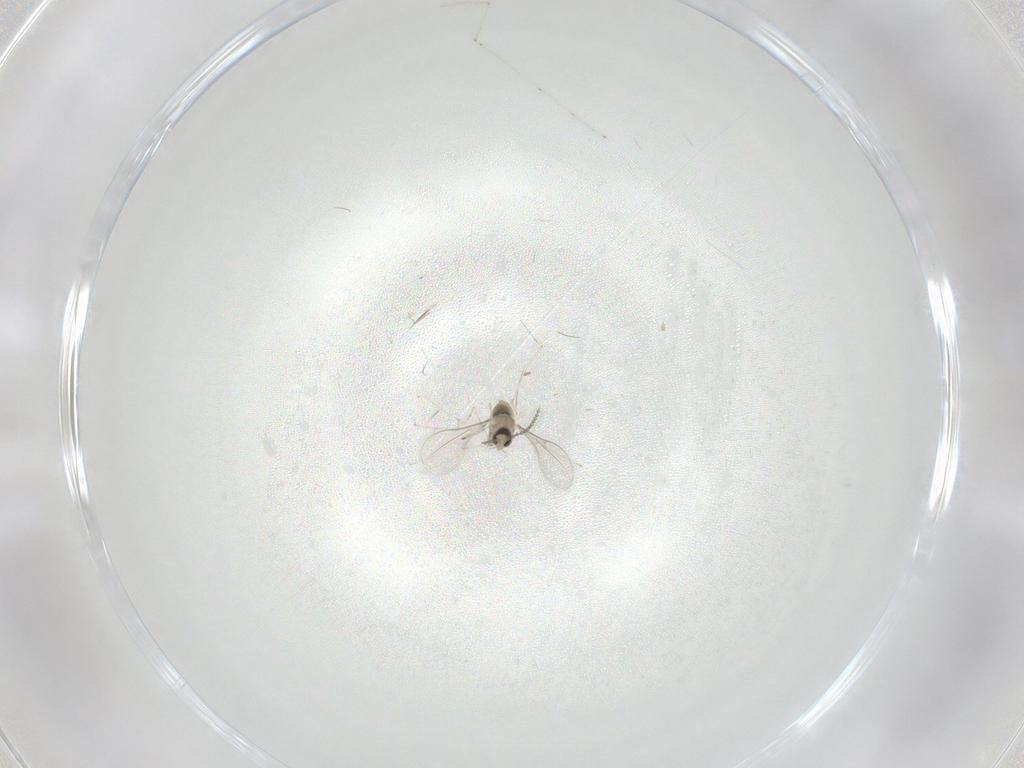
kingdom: Animalia
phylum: Arthropoda
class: Insecta
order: Diptera
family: Cecidomyiidae
